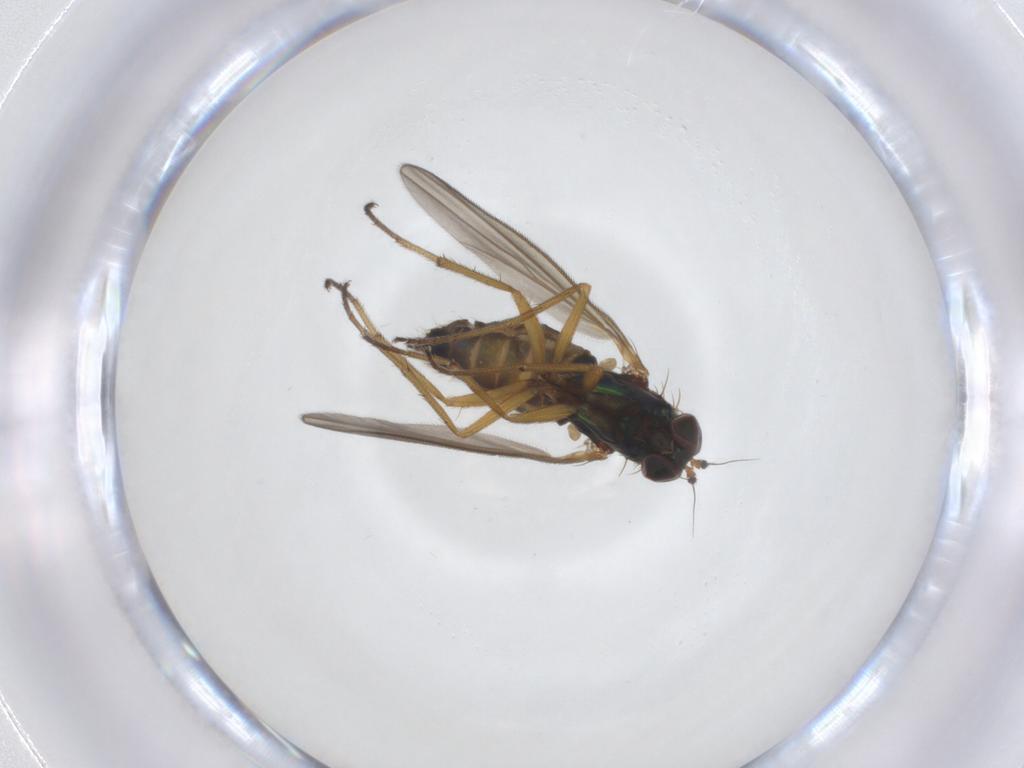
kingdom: Animalia
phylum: Arthropoda
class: Insecta
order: Diptera
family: Dolichopodidae
